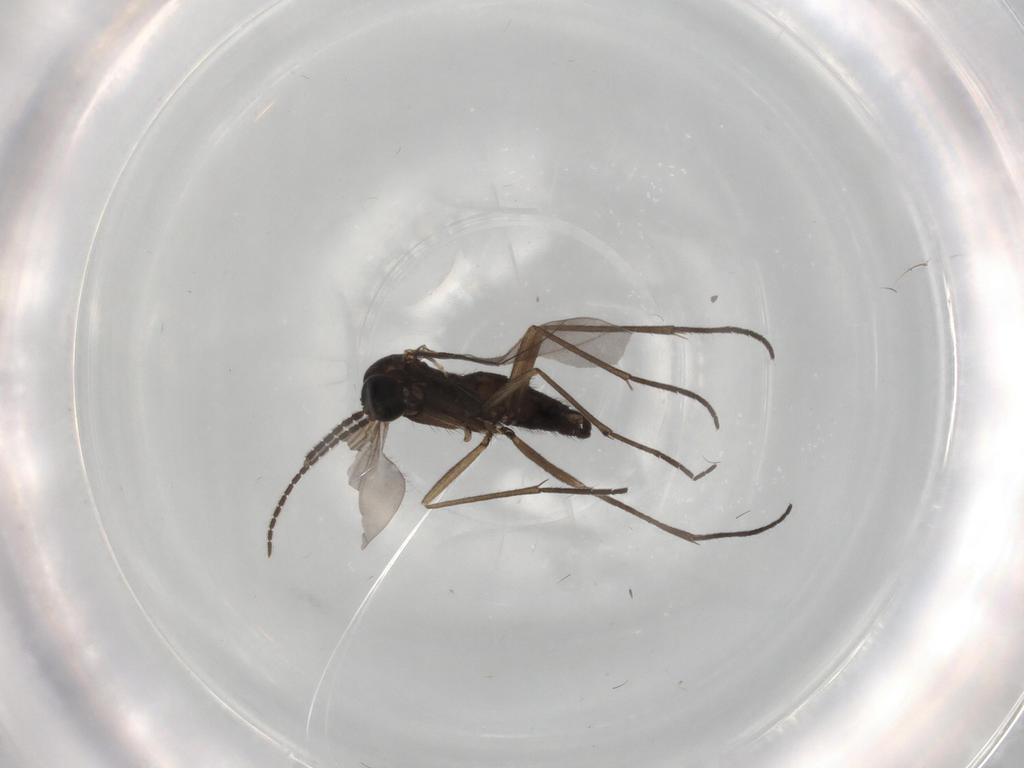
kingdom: Animalia
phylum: Arthropoda
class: Insecta
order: Diptera
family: Sciaridae
